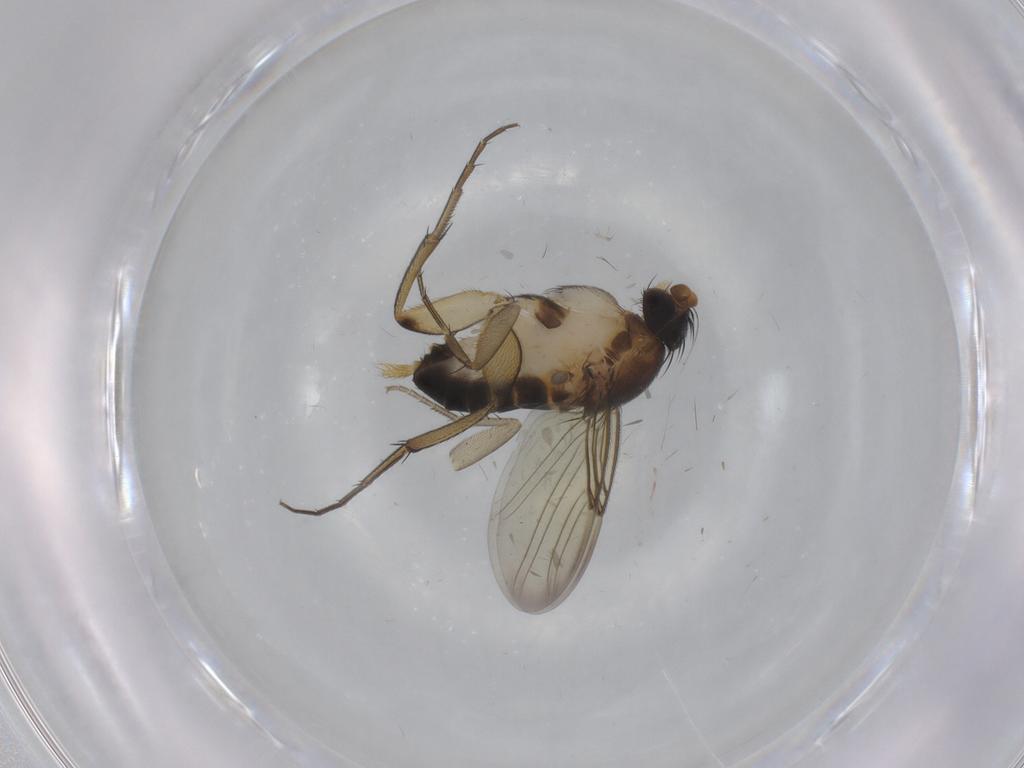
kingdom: Animalia
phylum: Arthropoda
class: Insecta
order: Diptera
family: Phoridae
